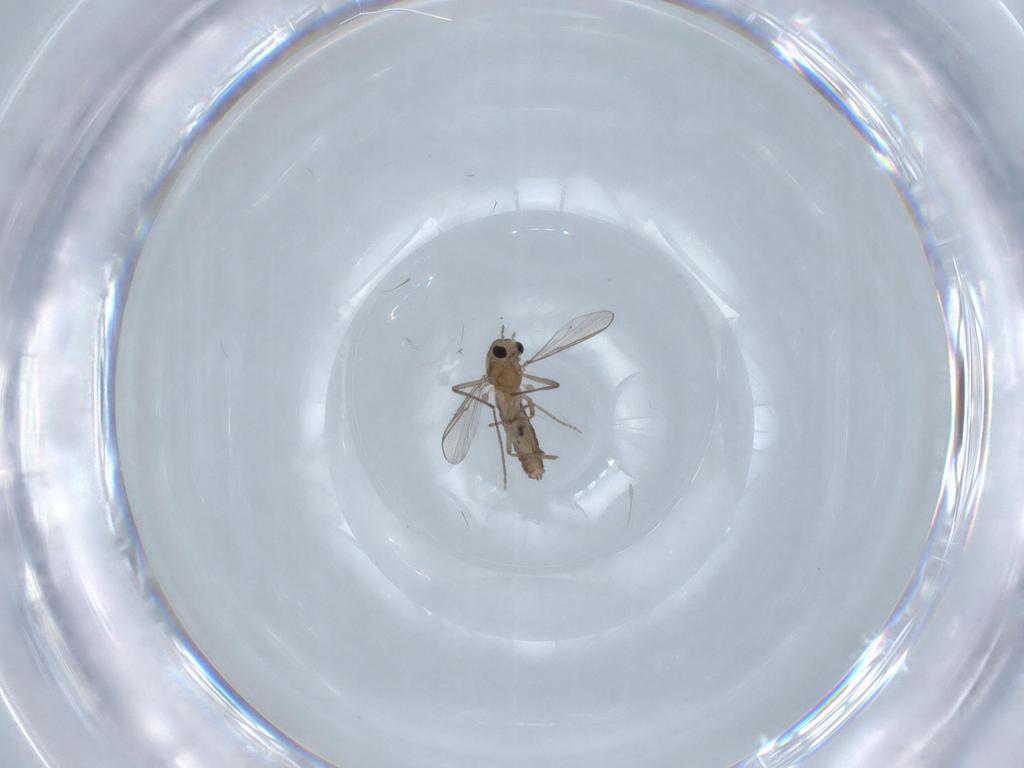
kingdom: Animalia
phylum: Arthropoda
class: Insecta
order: Diptera
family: Chironomidae
